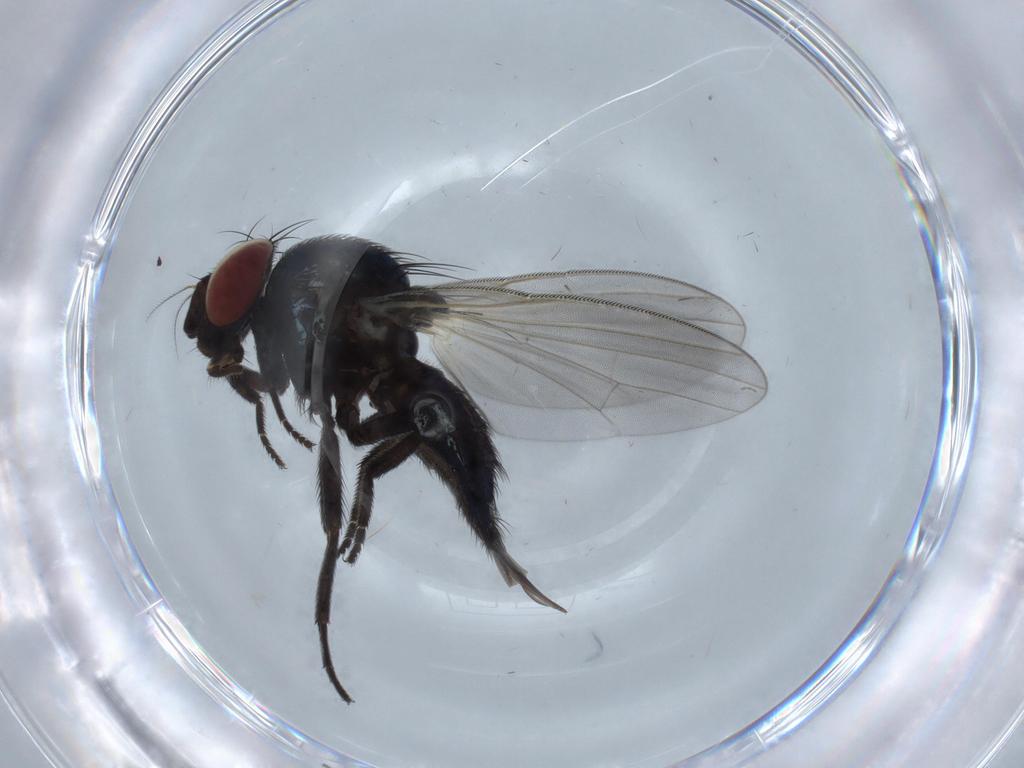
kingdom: Animalia
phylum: Arthropoda
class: Insecta
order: Diptera
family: Lonchaeidae
